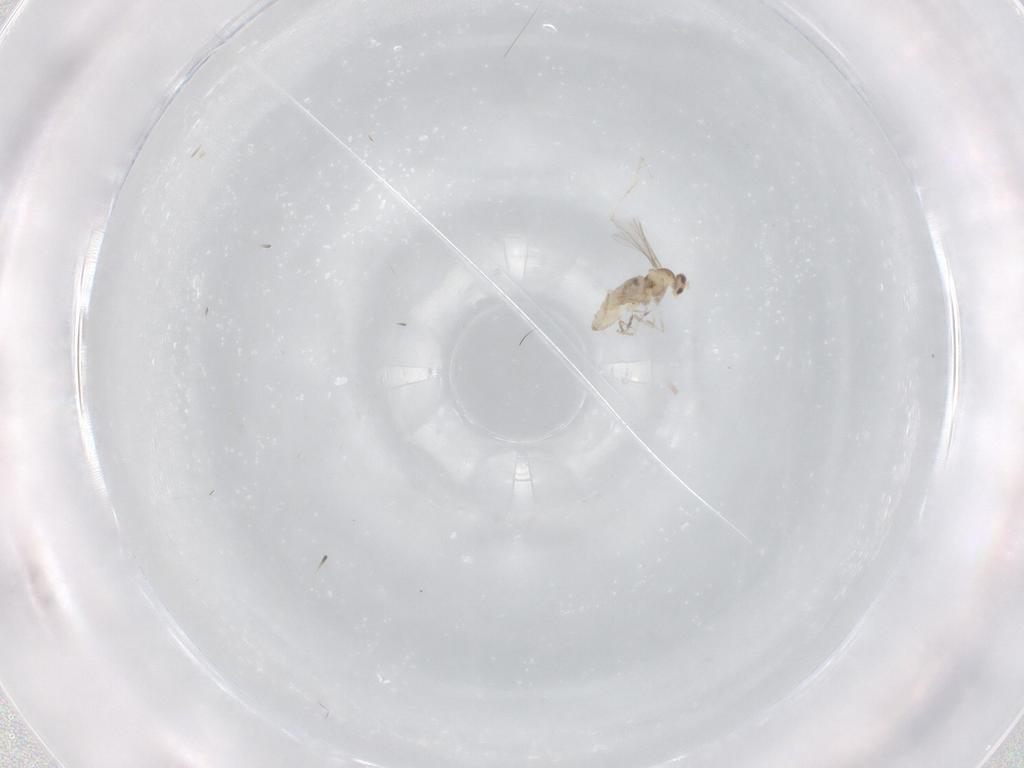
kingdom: Animalia
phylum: Arthropoda
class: Insecta
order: Diptera
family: Cecidomyiidae
